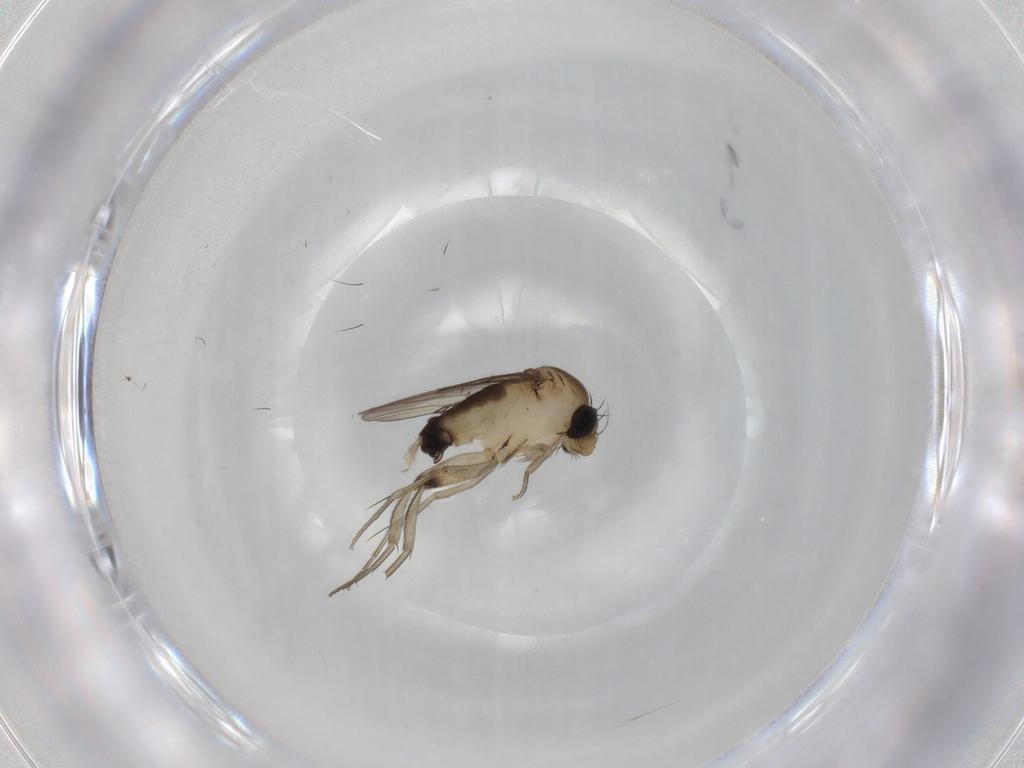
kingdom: Animalia
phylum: Arthropoda
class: Insecta
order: Diptera
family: Phoridae
